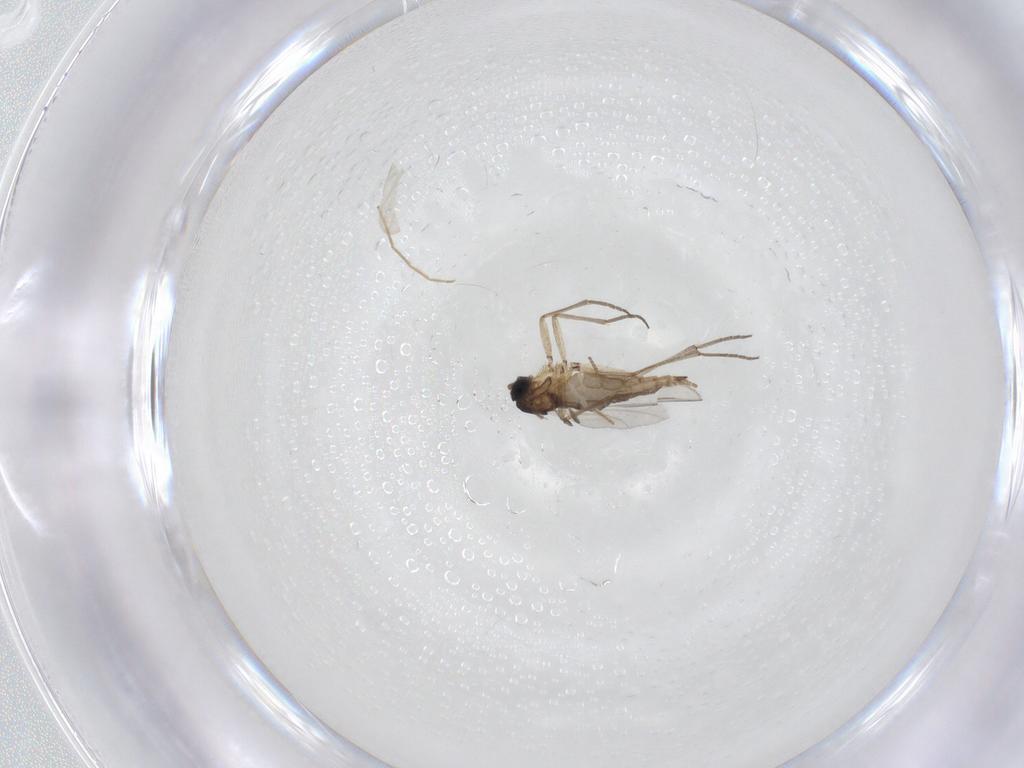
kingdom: Animalia
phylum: Arthropoda
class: Insecta
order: Diptera
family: Sciaridae
